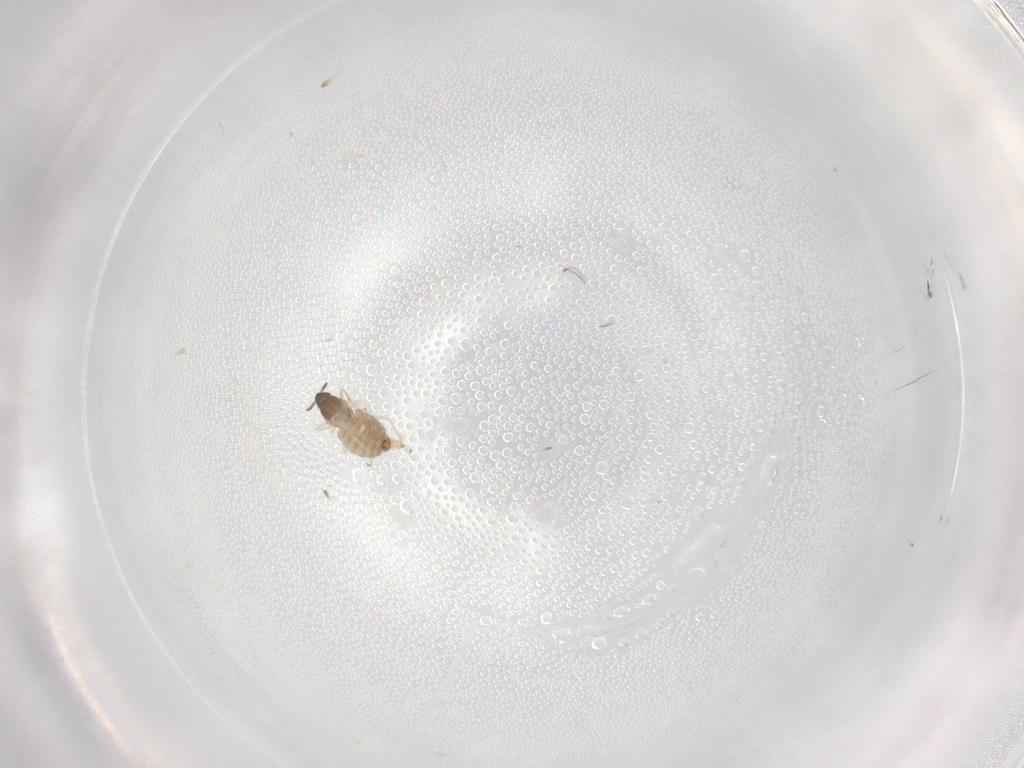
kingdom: Animalia
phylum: Arthropoda
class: Insecta
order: Diptera
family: Cecidomyiidae
